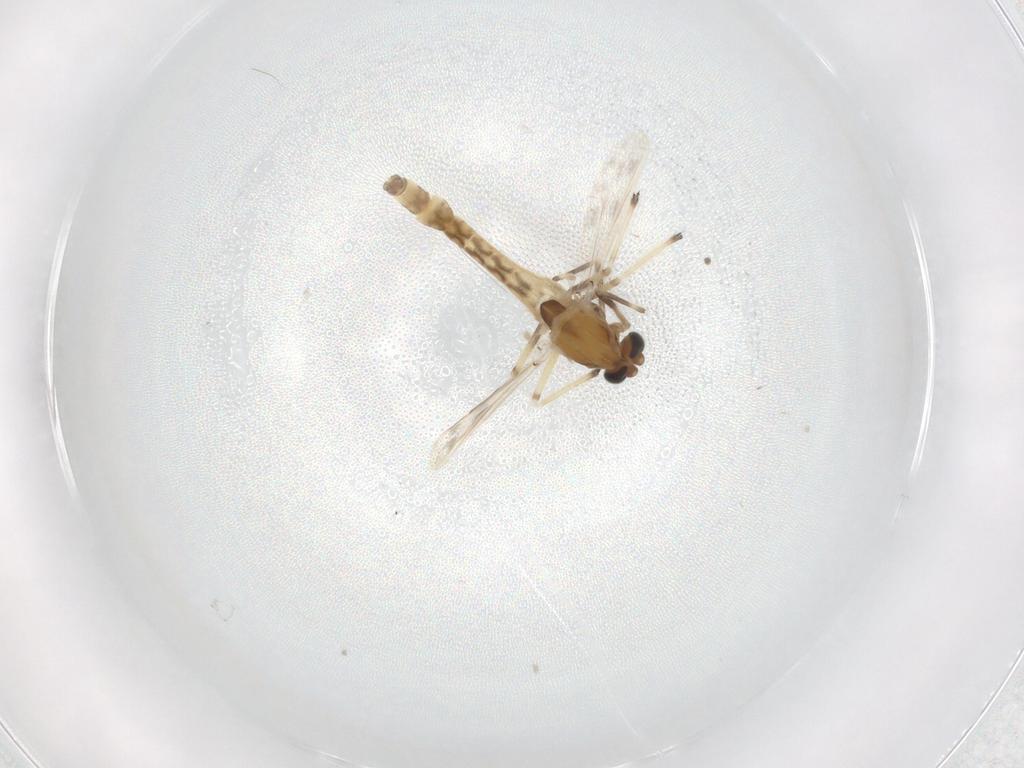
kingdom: Animalia
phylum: Arthropoda
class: Insecta
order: Diptera
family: Chironomidae
